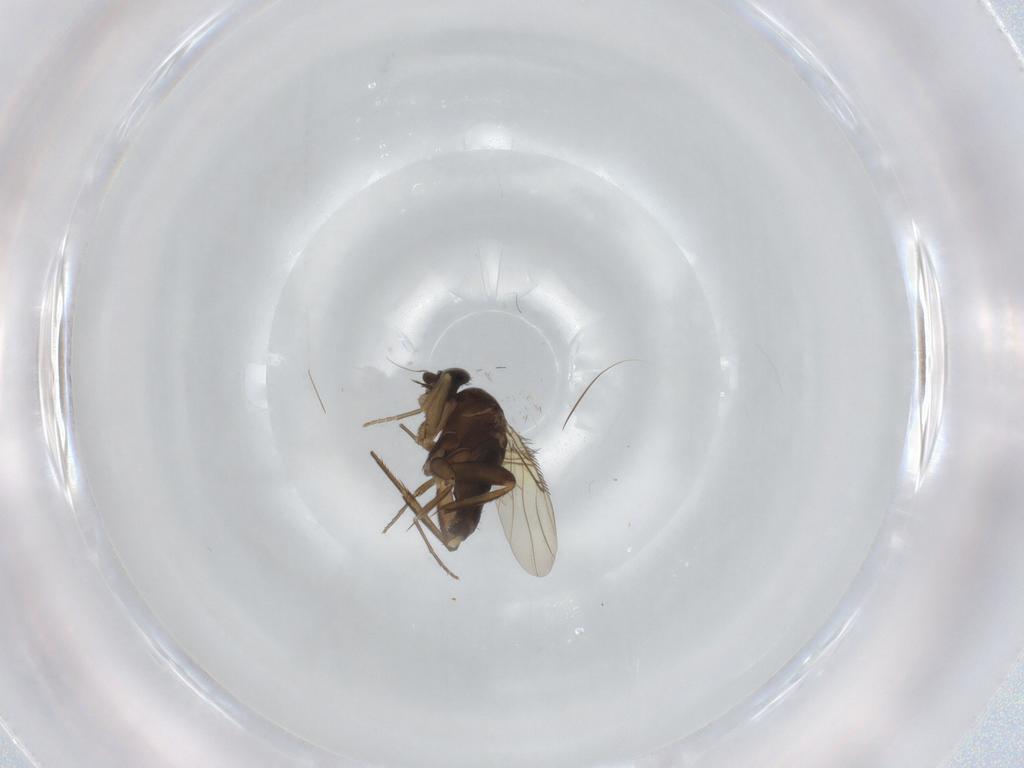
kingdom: Animalia
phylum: Arthropoda
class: Insecta
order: Diptera
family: Phoridae
